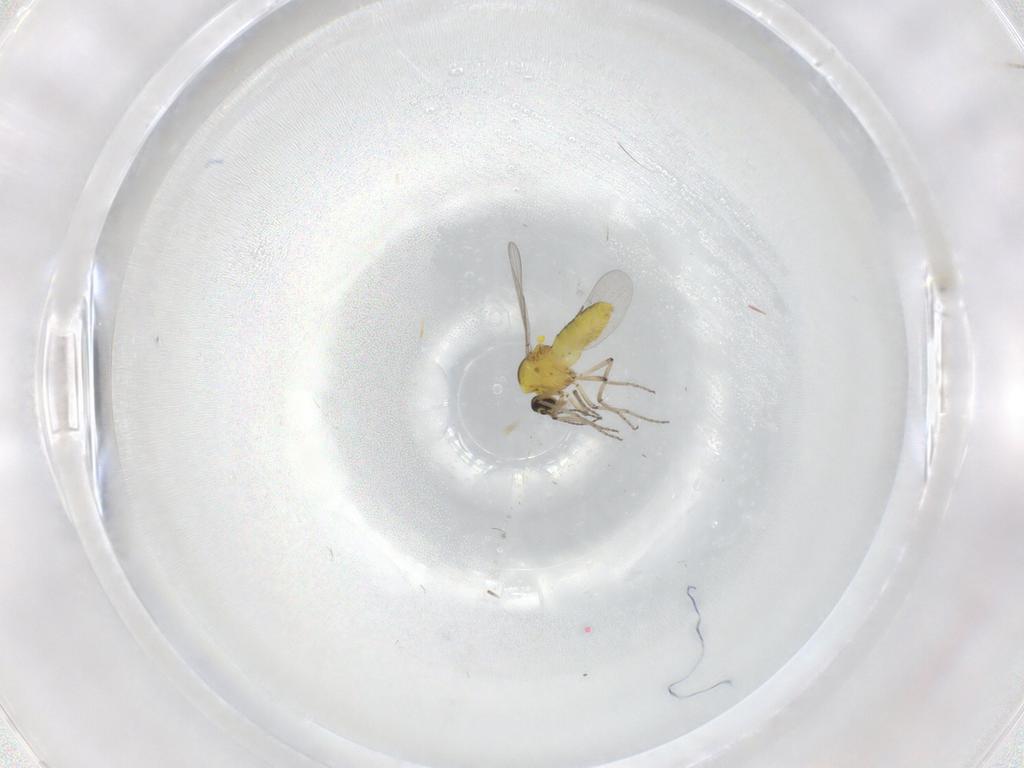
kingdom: Animalia
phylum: Arthropoda
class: Insecta
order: Diptera
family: Ceratopogonidae
